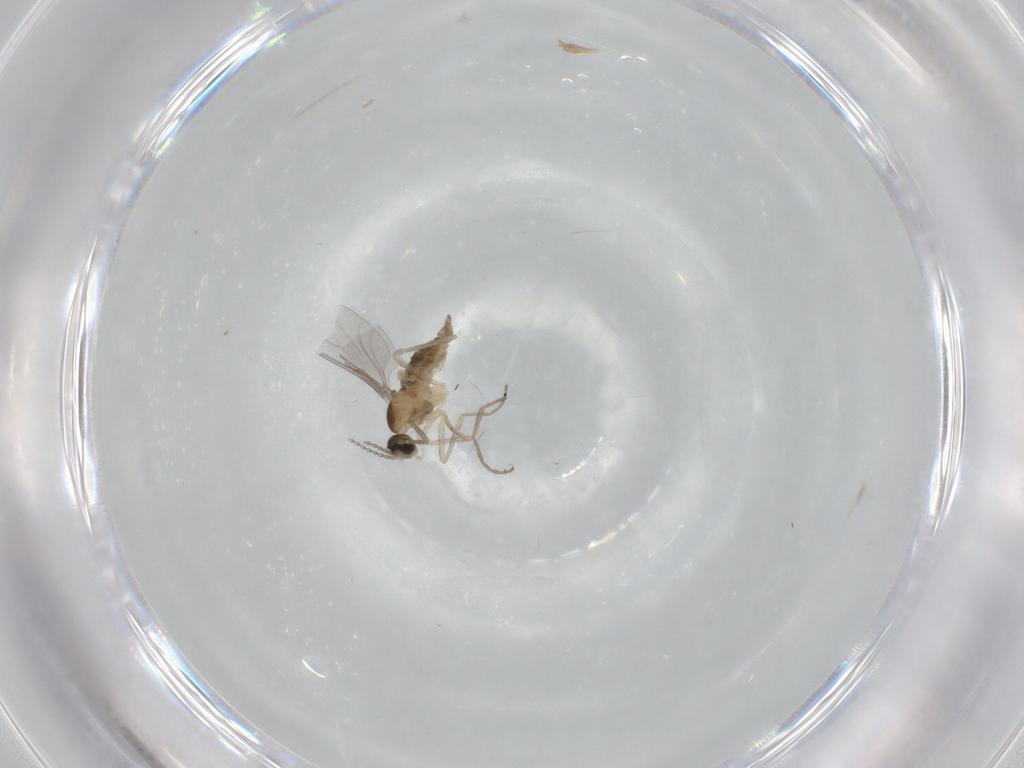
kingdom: Animalia
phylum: Arthropoda
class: Insecta
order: Diptera
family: Cecidomyiidae
